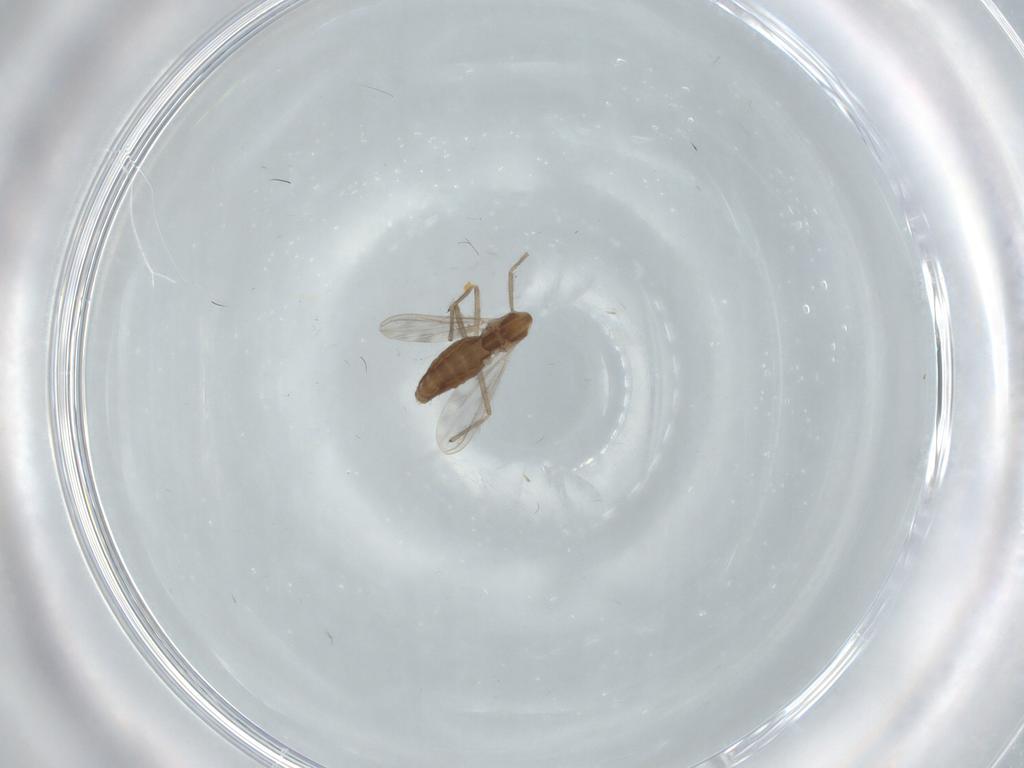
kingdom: Animalia
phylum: Arthropoda
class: Insecta
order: Diptera
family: Chironomidae
